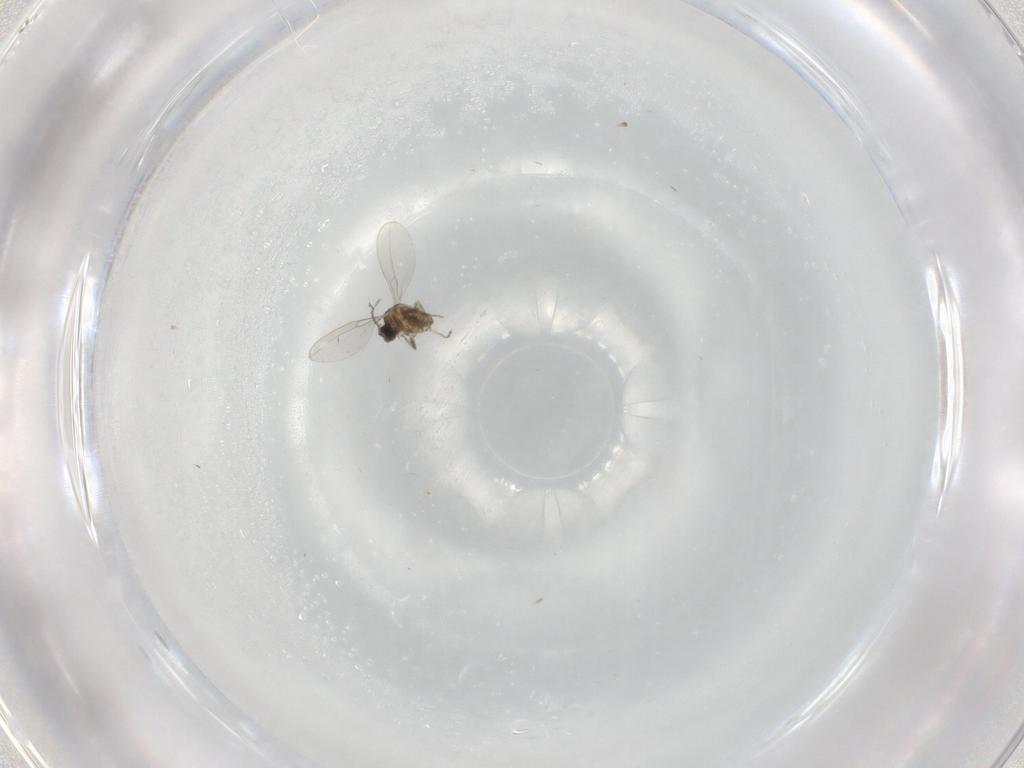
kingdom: Animalia
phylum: Arthropoda
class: Insecta
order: Diptera
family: Cecidomyiidae
